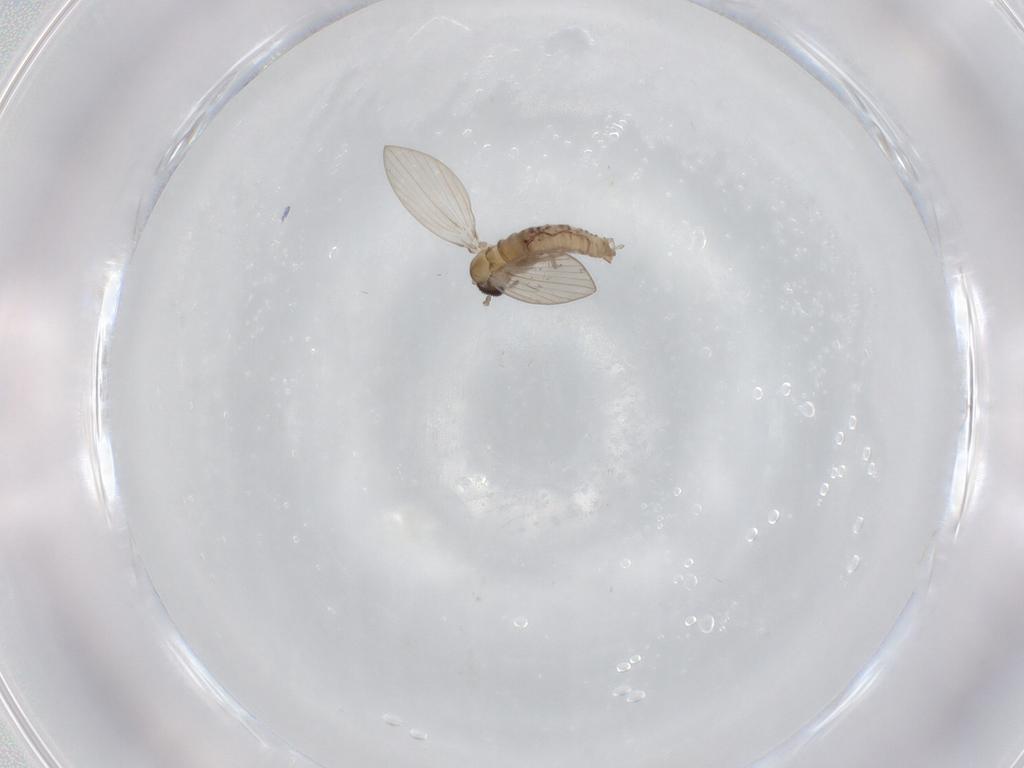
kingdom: Animalia
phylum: Arthropoda
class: Insecta
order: Diptera
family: Psychodidae
